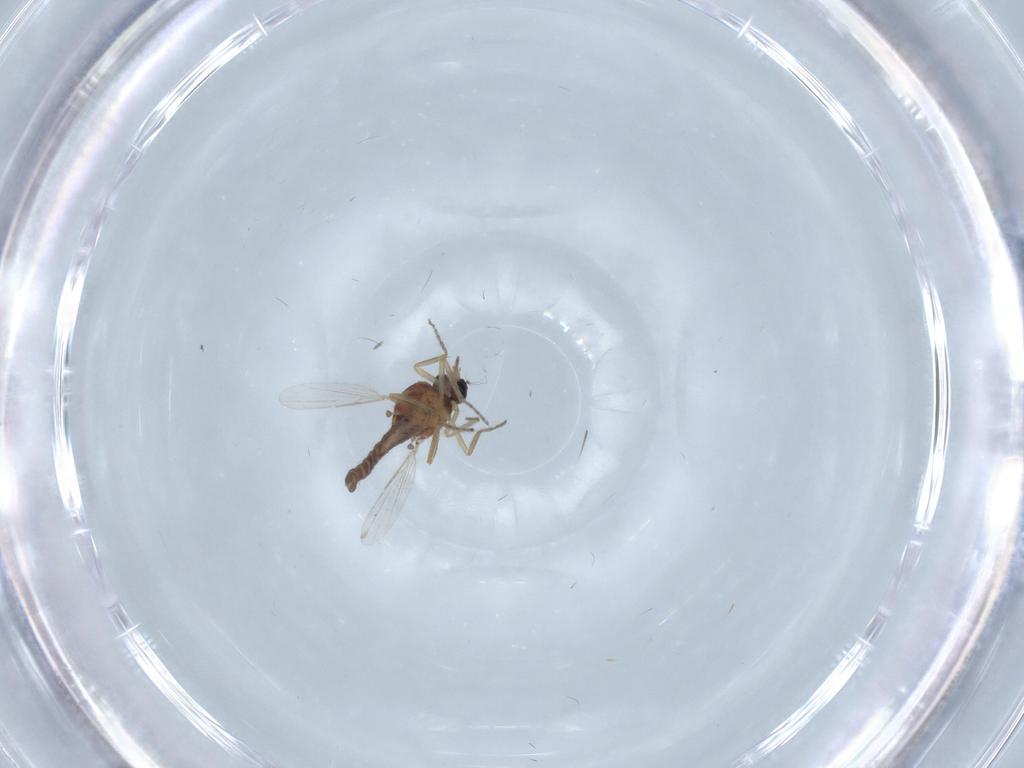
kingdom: Animalia
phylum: Arthropoda
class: Insecta
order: Diptera
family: Ceratopogonidae
